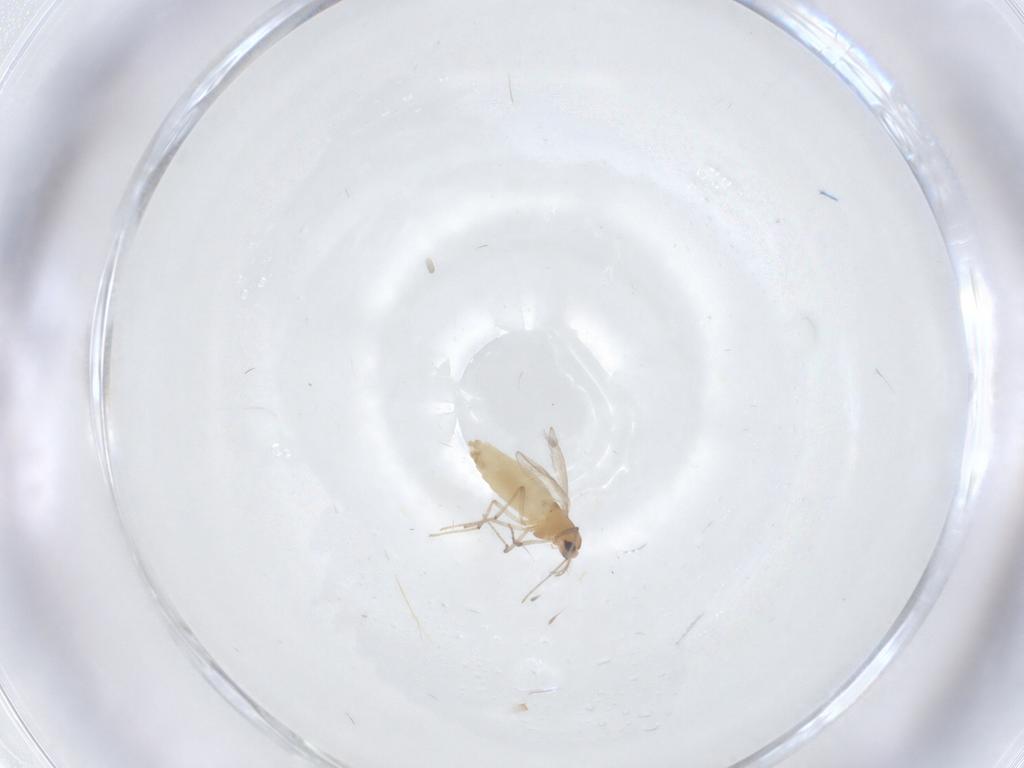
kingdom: Animalia
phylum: Arthropoda
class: Insecta
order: Diptera
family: Chironomidae
